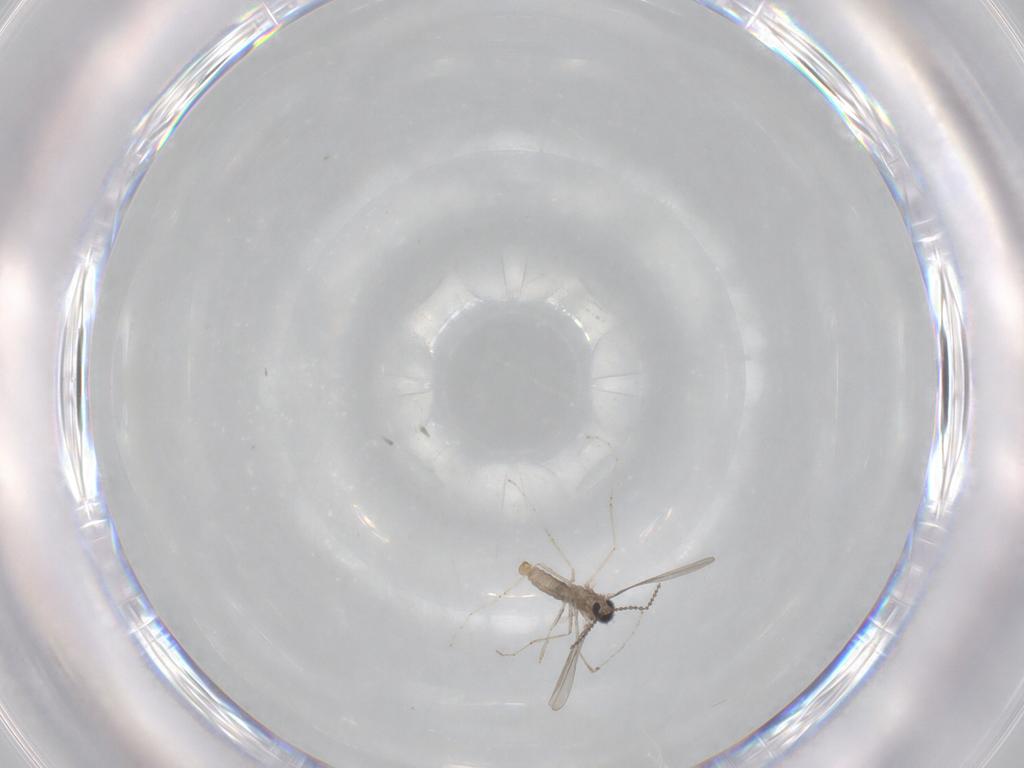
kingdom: Animalia
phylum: Arthropoda
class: Insecta
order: Diptera
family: Cecidomyiidae
